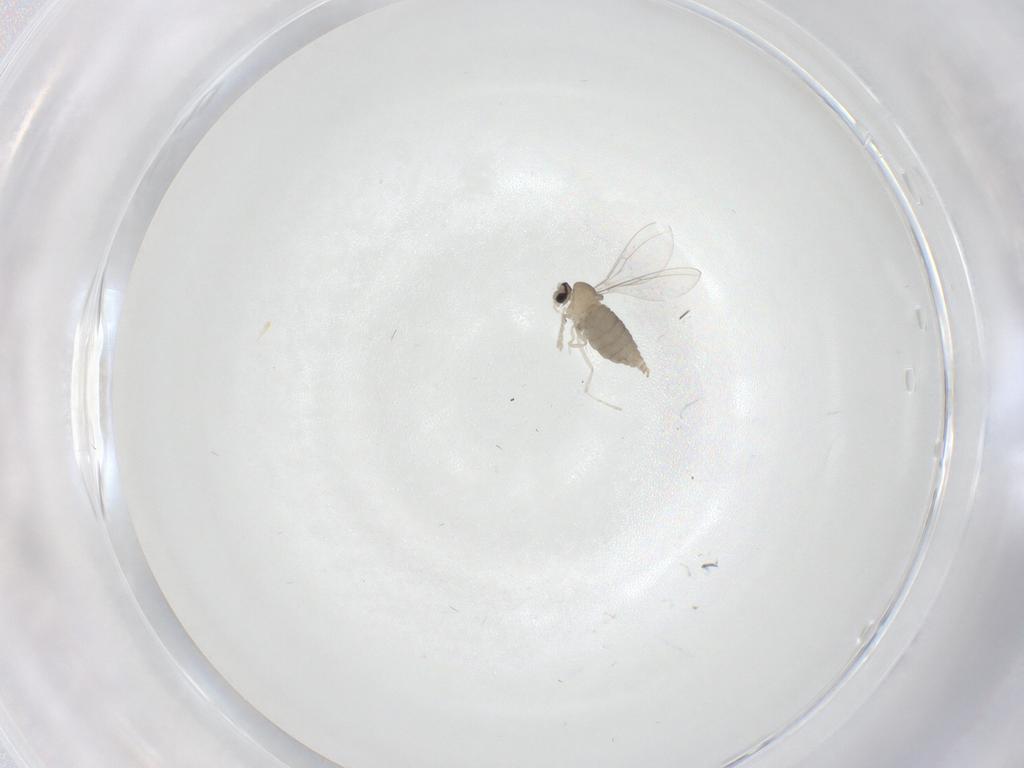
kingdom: Animalia
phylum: Arthropoda
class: Insecta
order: Diptera
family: Cecidomyiidae
